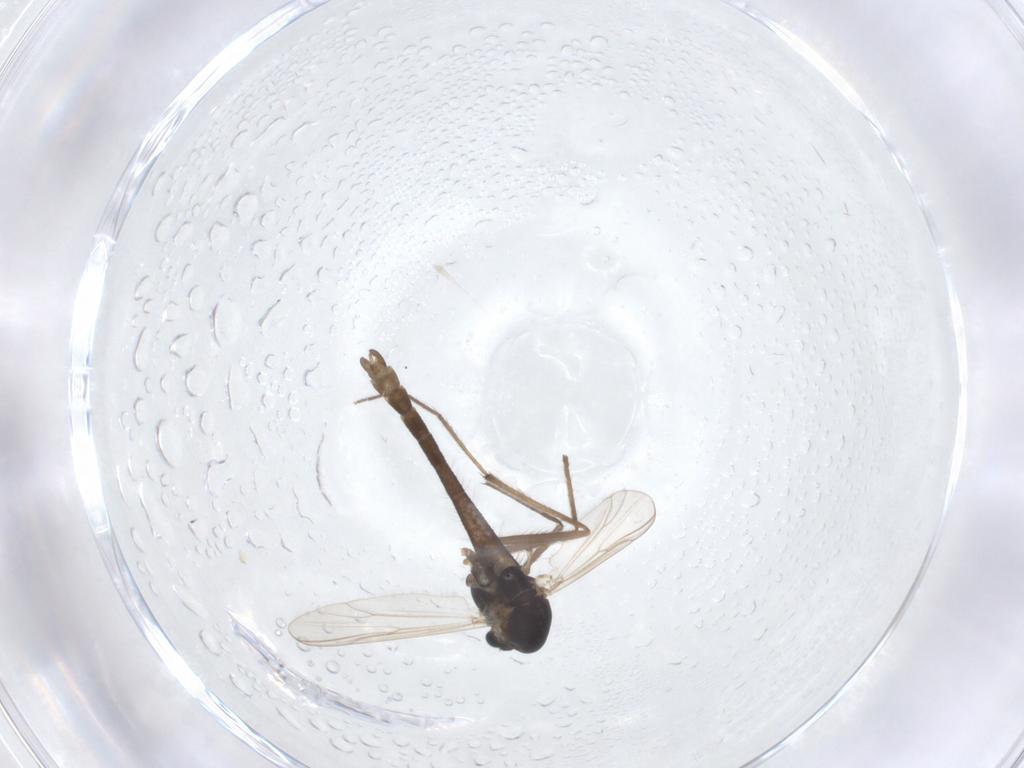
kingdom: Animalia
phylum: Arthropoda
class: Insecta
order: Diptera
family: Chironomidae
